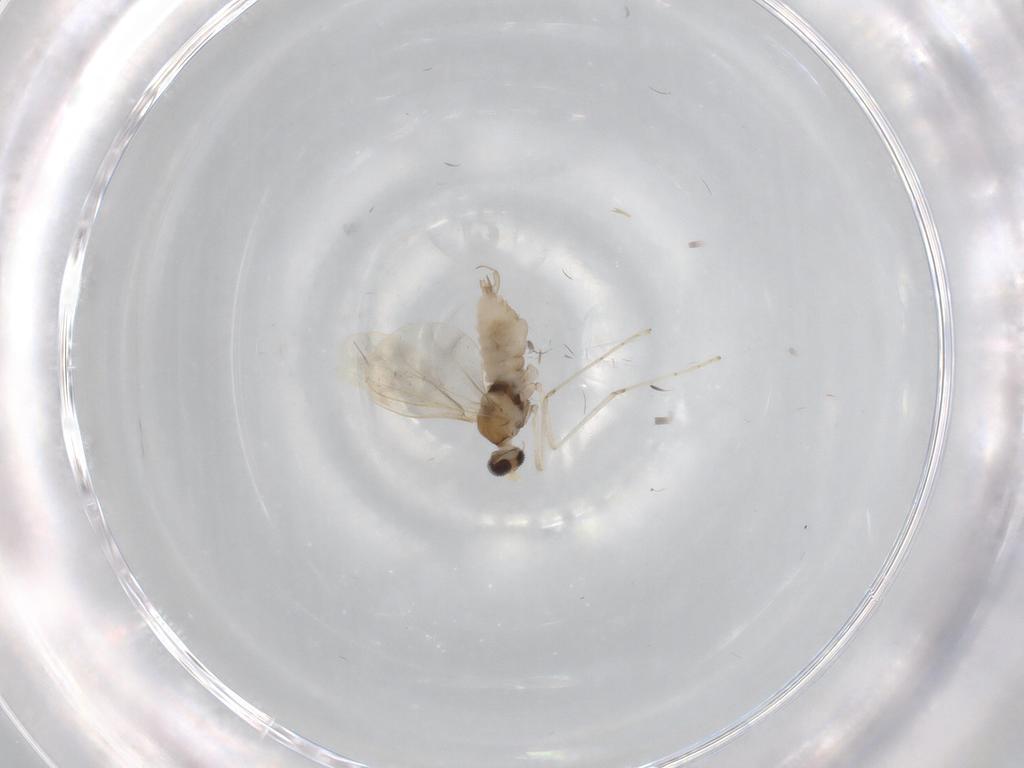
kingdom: Animalia
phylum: Arthropoda
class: Insecta
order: Diptera
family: Cecidomyiidae
